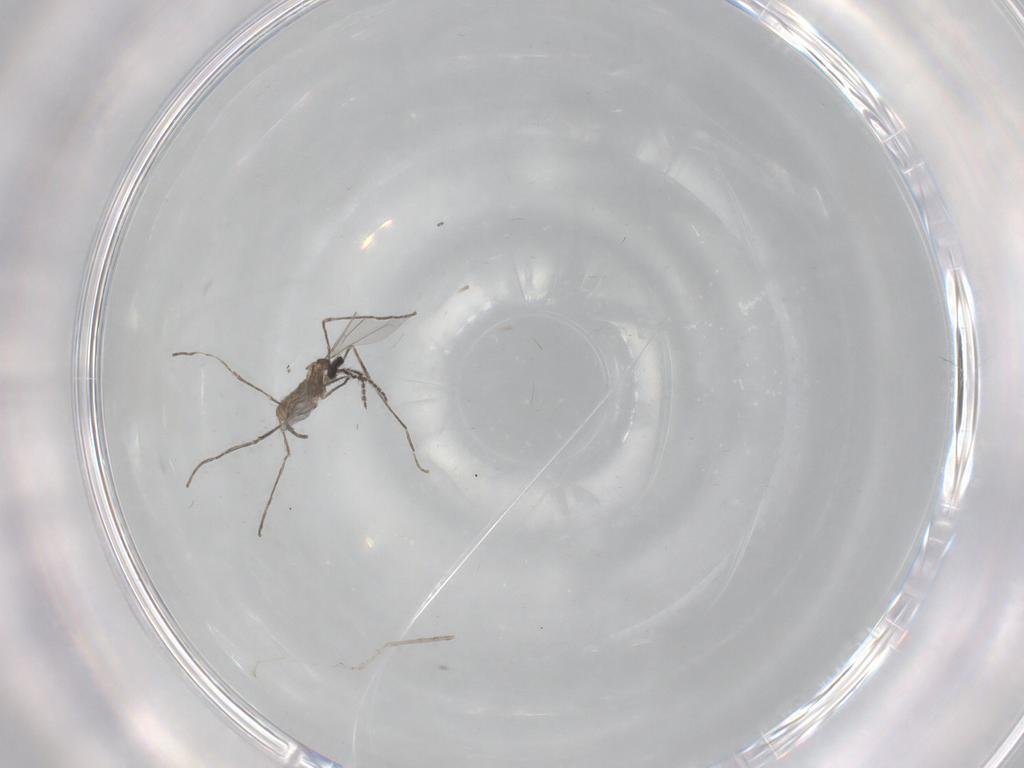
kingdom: Animalia
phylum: Arthropoda
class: Insecta
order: Diptera
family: Cecidomyiidae
